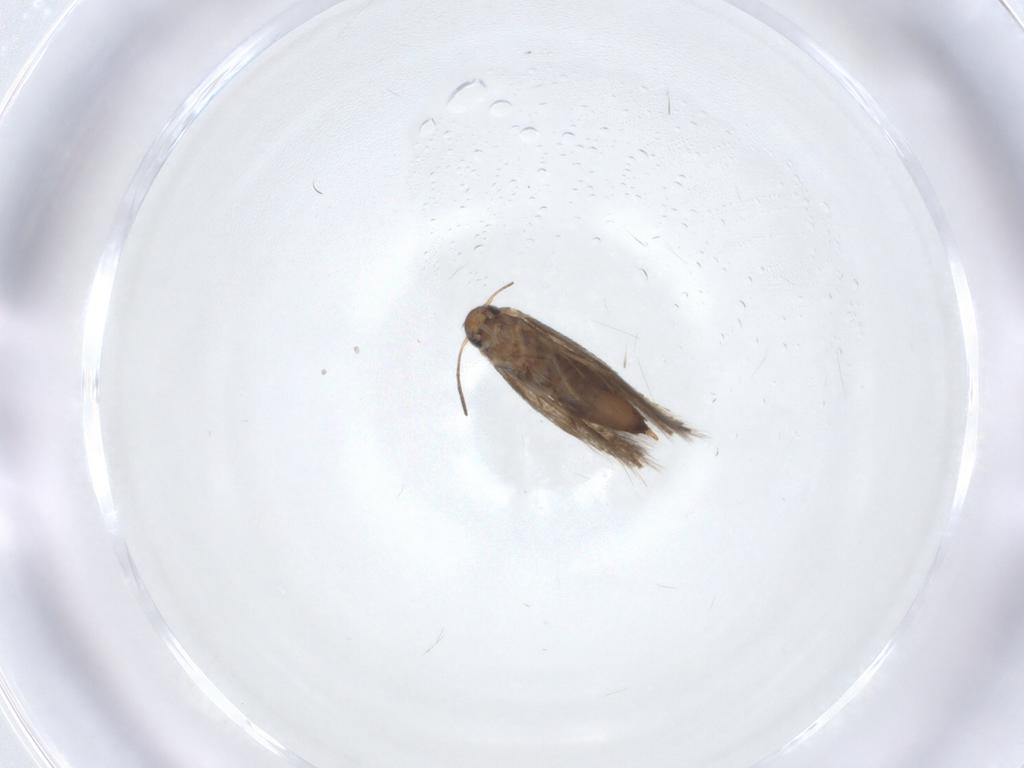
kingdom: Animalia
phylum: Arthropoda
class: Insecta
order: Lepidoptera
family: Heliozelidae
